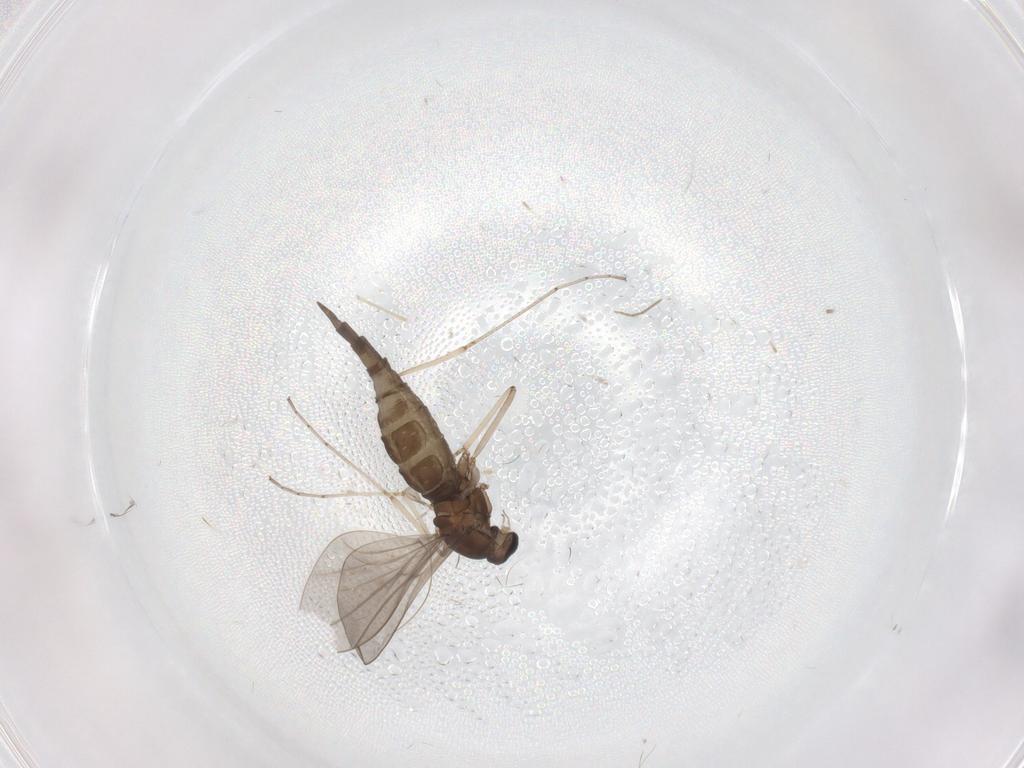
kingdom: Animalia
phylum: Arthropoda
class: Insecta
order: Diptera
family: Cecidomyiidae
